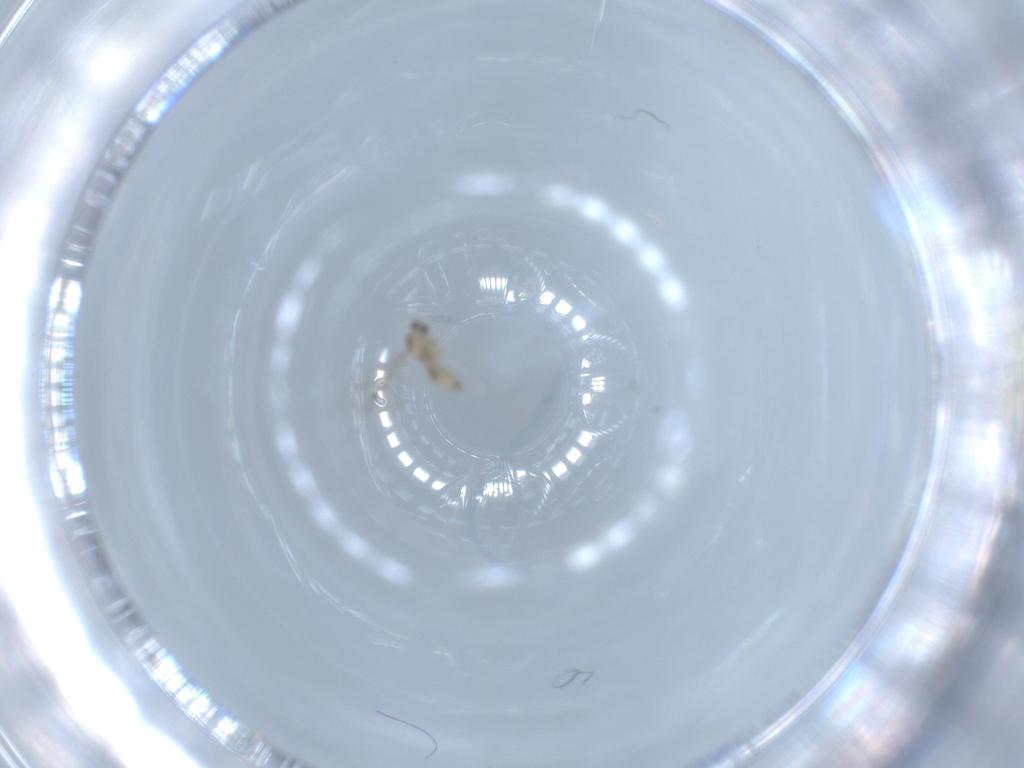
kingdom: Animalia
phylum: Arthropoda
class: Insecta
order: Diptera
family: Cecidomyiidae
